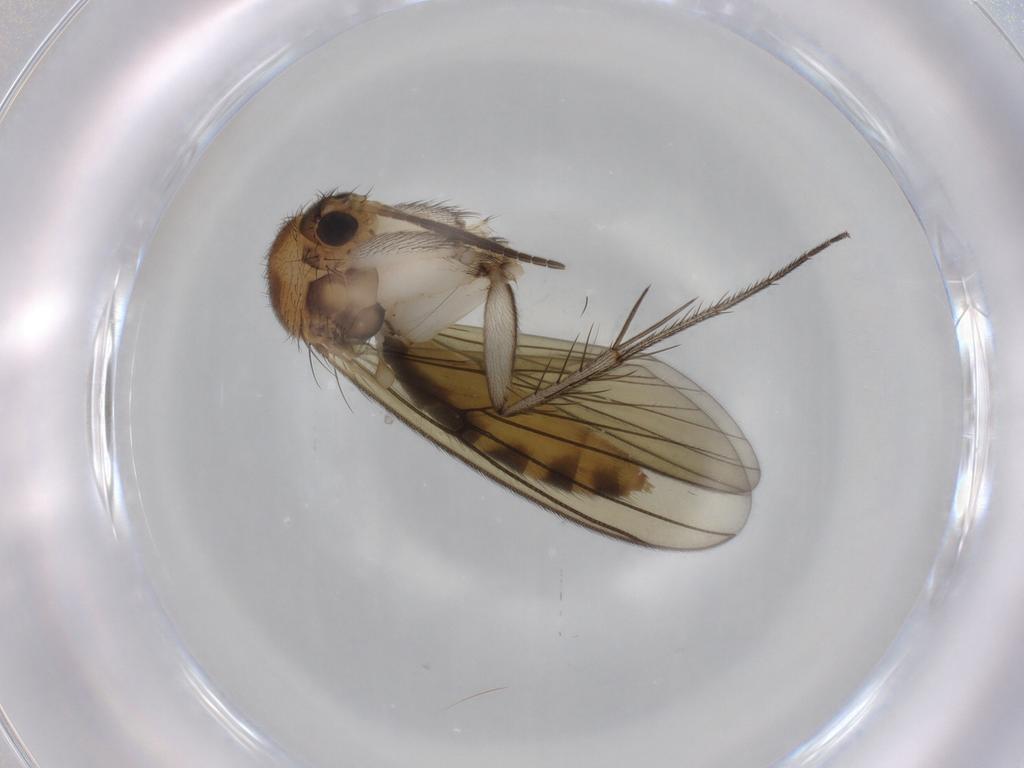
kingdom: Animalia
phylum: Arthropoda
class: Insecta
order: Diptera
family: Mycetophilidae
